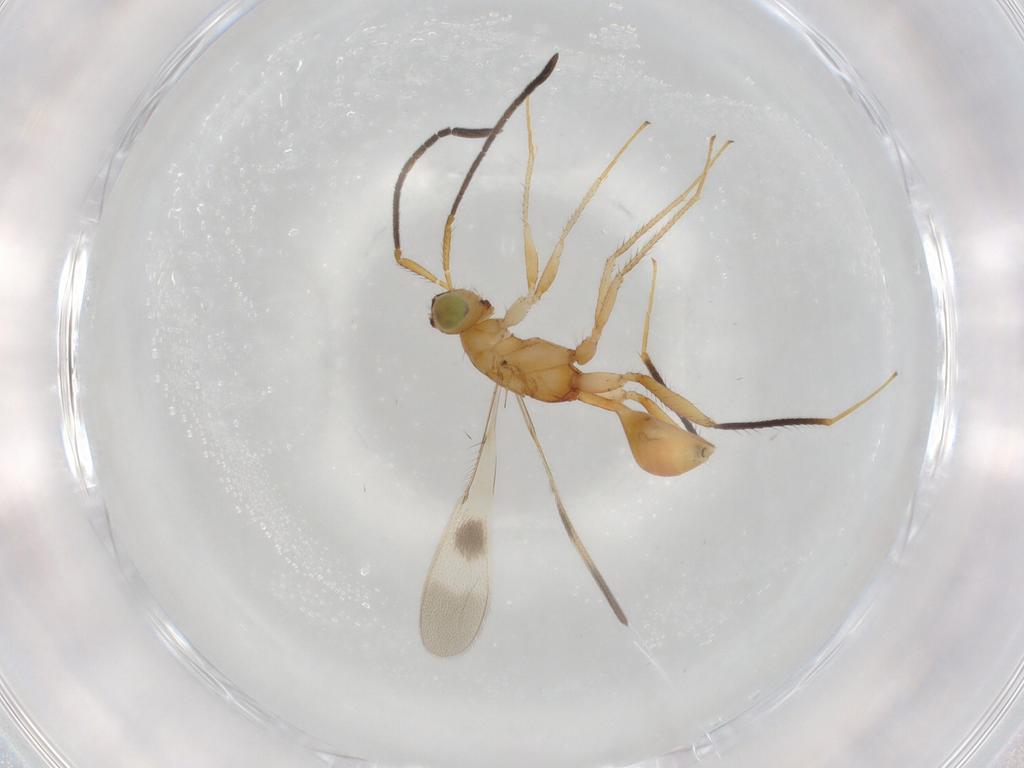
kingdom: Animalia
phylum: Arthropoda
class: Insecta
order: Hymenoptera
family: Mymaridae
